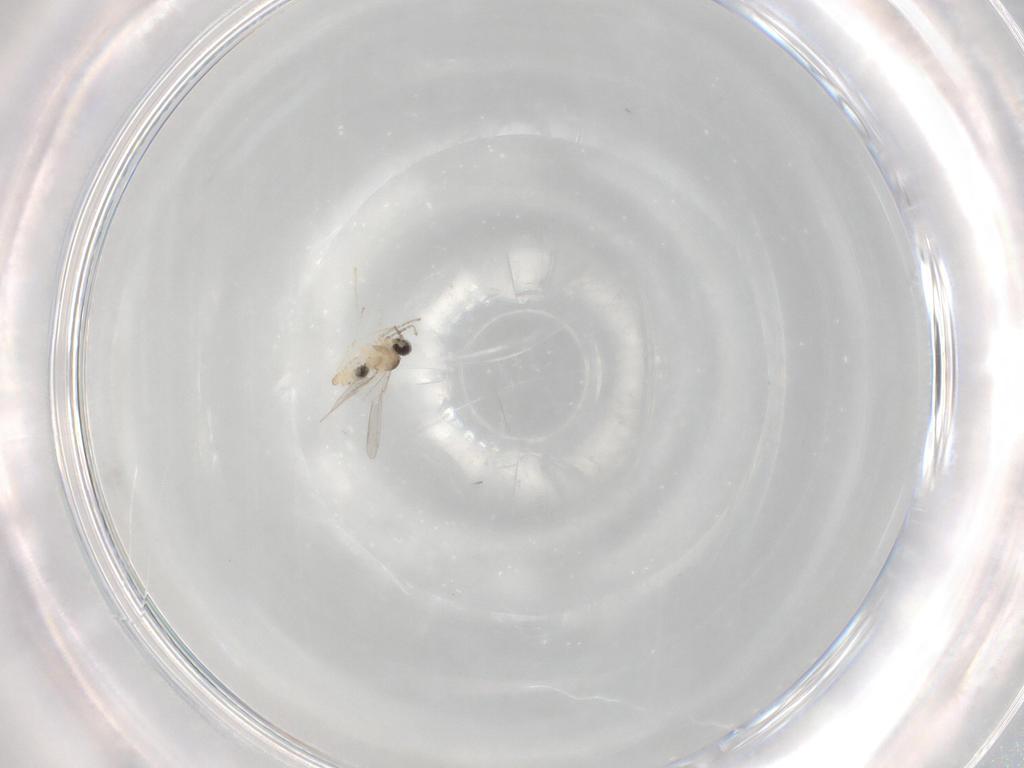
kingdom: Animalia
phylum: Arthropoda
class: Insecta
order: Diptera
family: Cecidomyiidae
